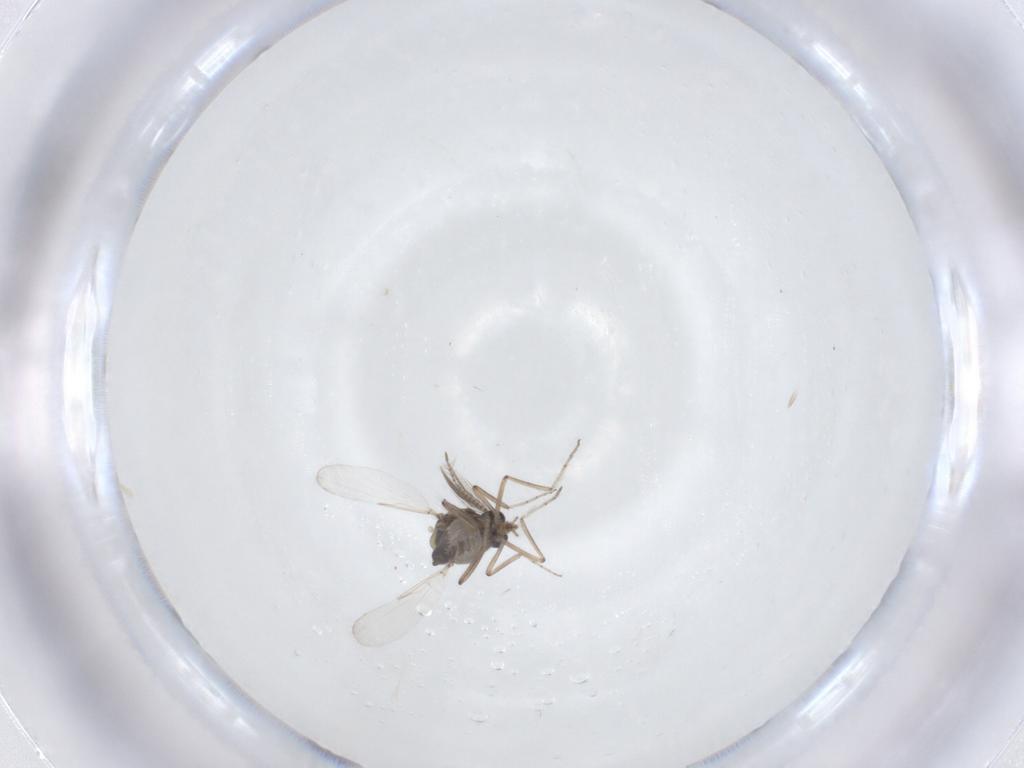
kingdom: Animalia
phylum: Arthropoda
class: Insecta
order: Diptera
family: Ceratopogonidae
